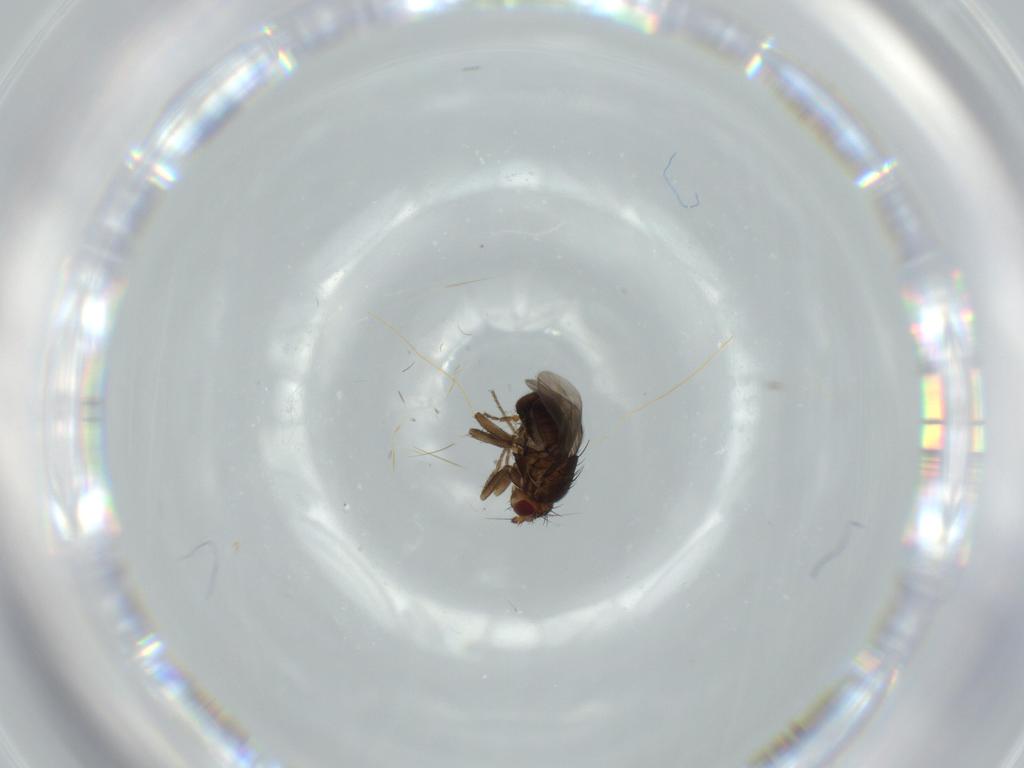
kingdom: Animalia
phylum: Arthropoda
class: Insecta
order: Diptera
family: Sphaeroceridae
